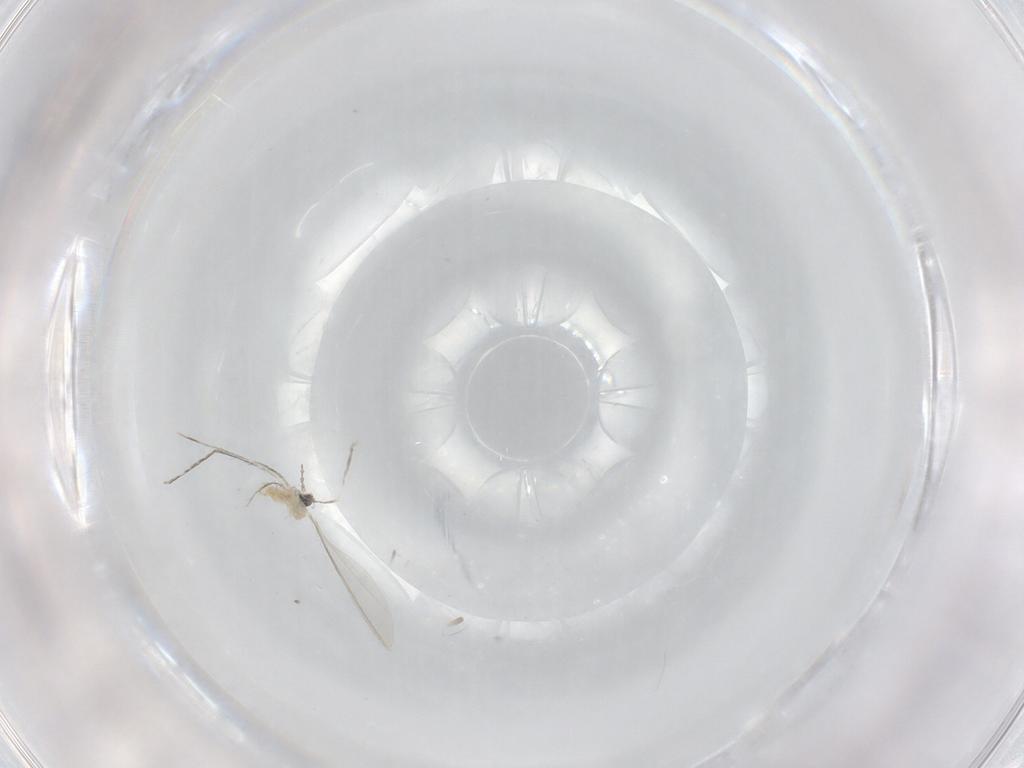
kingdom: Animalia
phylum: Arthropoda
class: Insecta
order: Diptera
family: Cecidomyiidae
